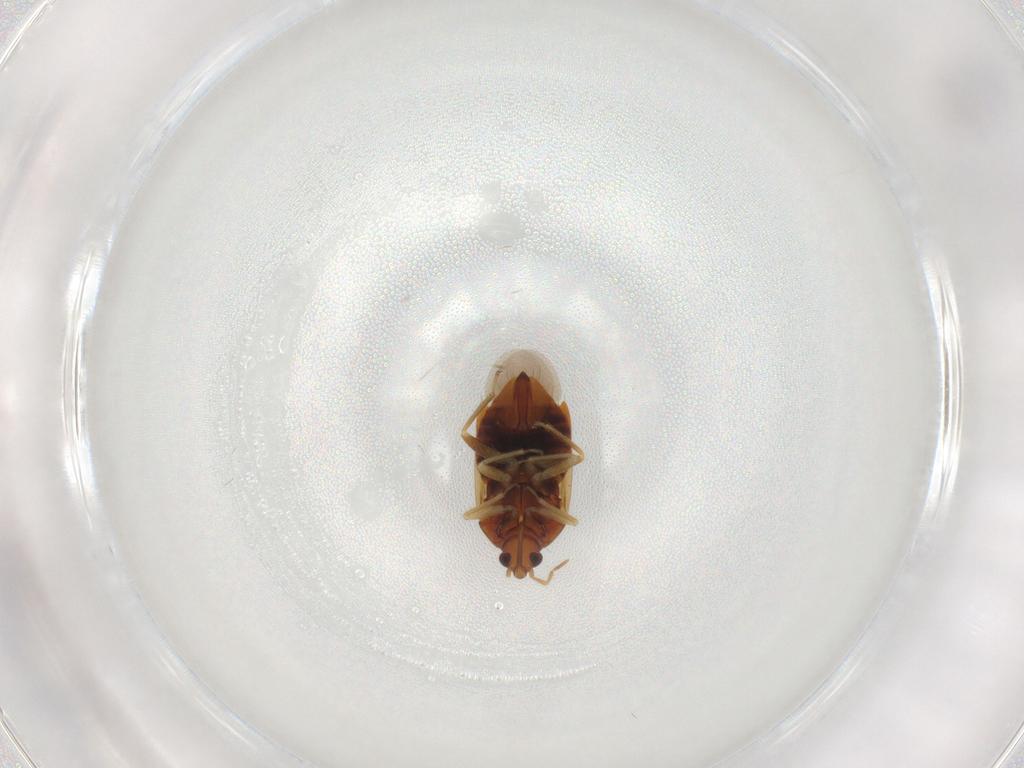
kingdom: Animalia
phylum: Arthropoda
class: Insecta
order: Hemiptera
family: Anthocoridae
